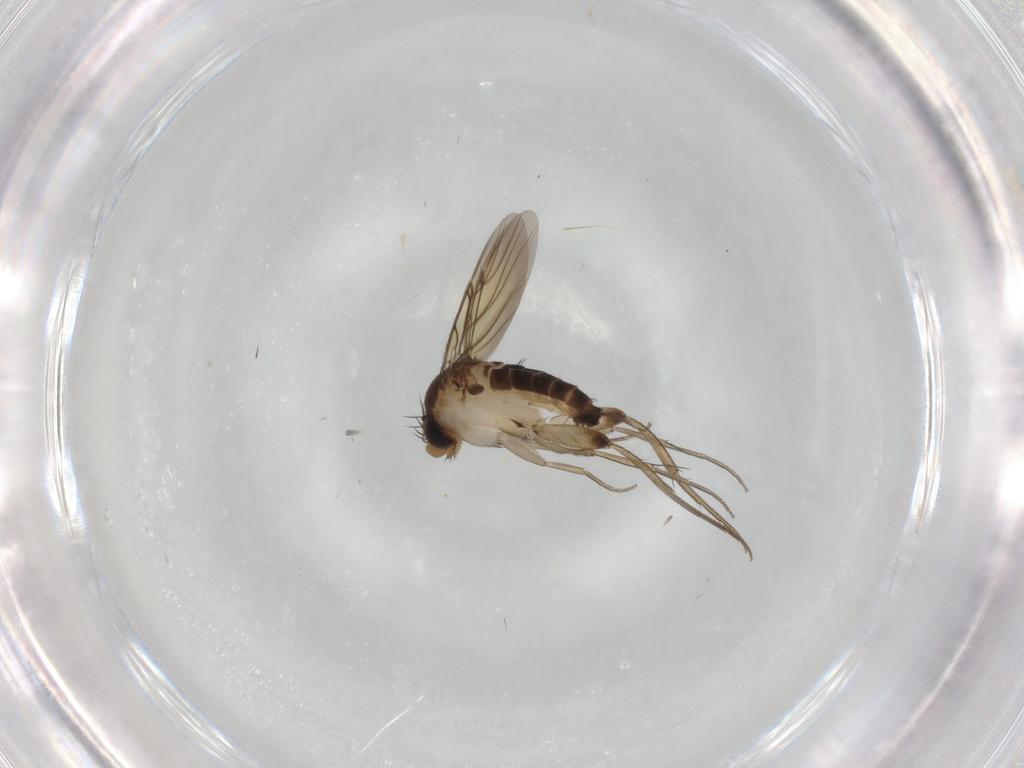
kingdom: Animalia
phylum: Arthropoda
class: Insecta
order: Diptera
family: Phoridae
